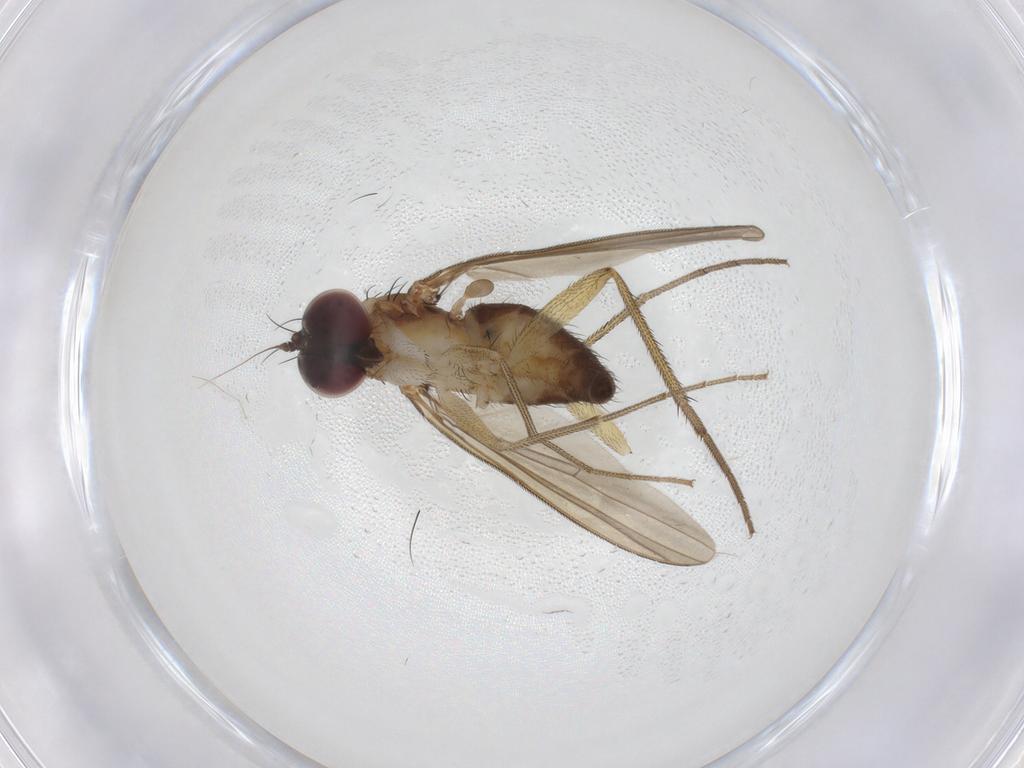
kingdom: Animalia
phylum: Arthropoda
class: Insecta
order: Diptera
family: Dolichopodidae
